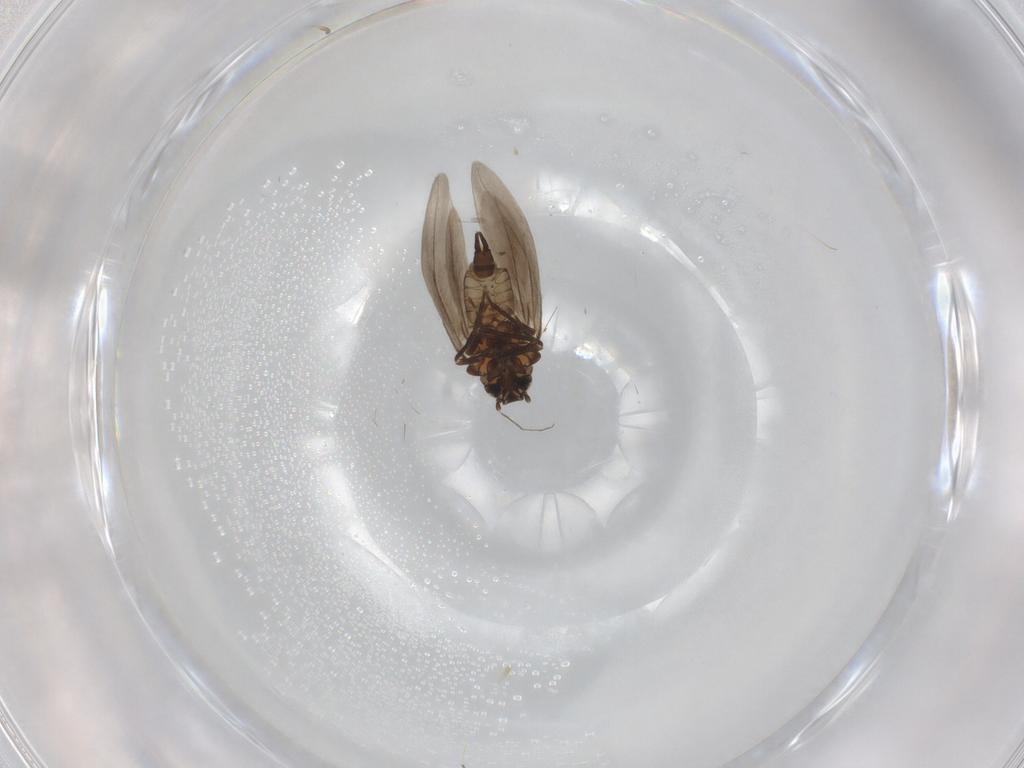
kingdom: Animalia
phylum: Arthropoda
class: Insecta
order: Hemiptera
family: Aleyrodidae
